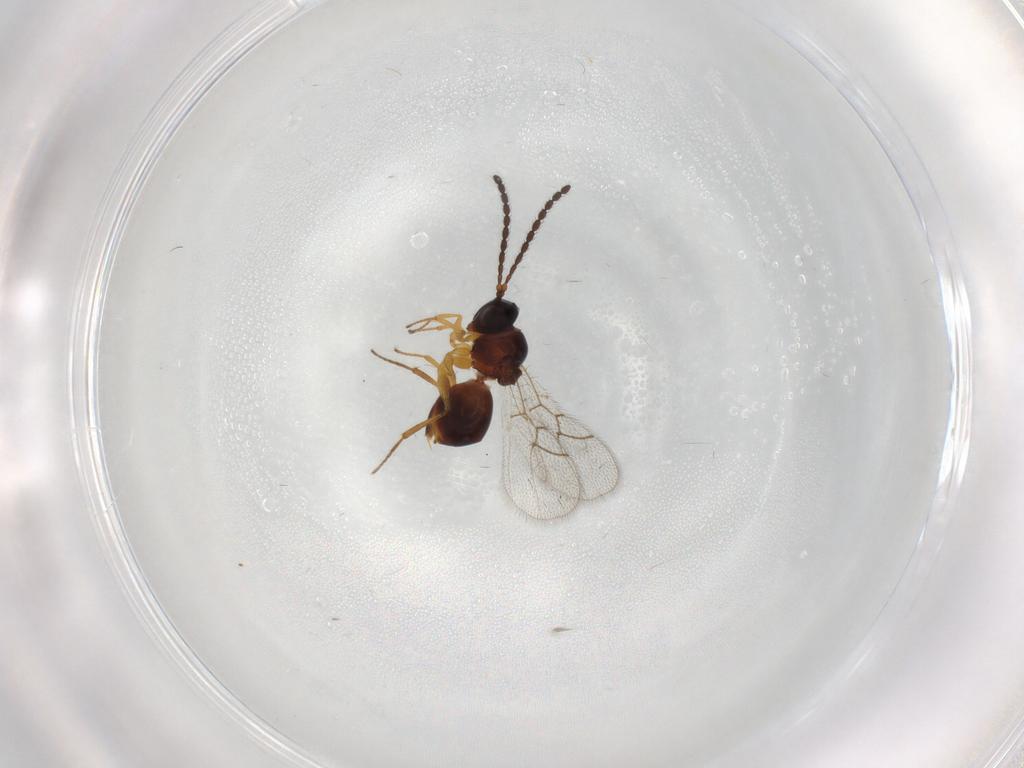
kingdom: Animalia
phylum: Arthropoda
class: Insecta
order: Hymenoptera
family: Figitidae
